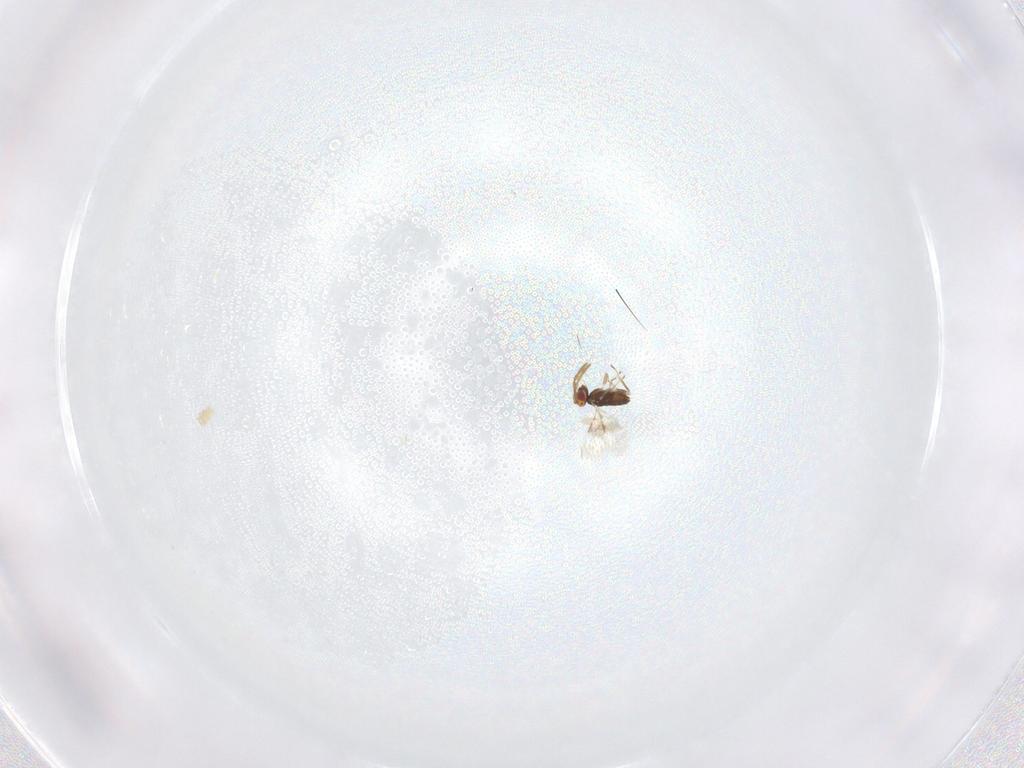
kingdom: Animalia
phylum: Arthropoda
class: Insecta
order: Hymenoptera
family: Azotidae
